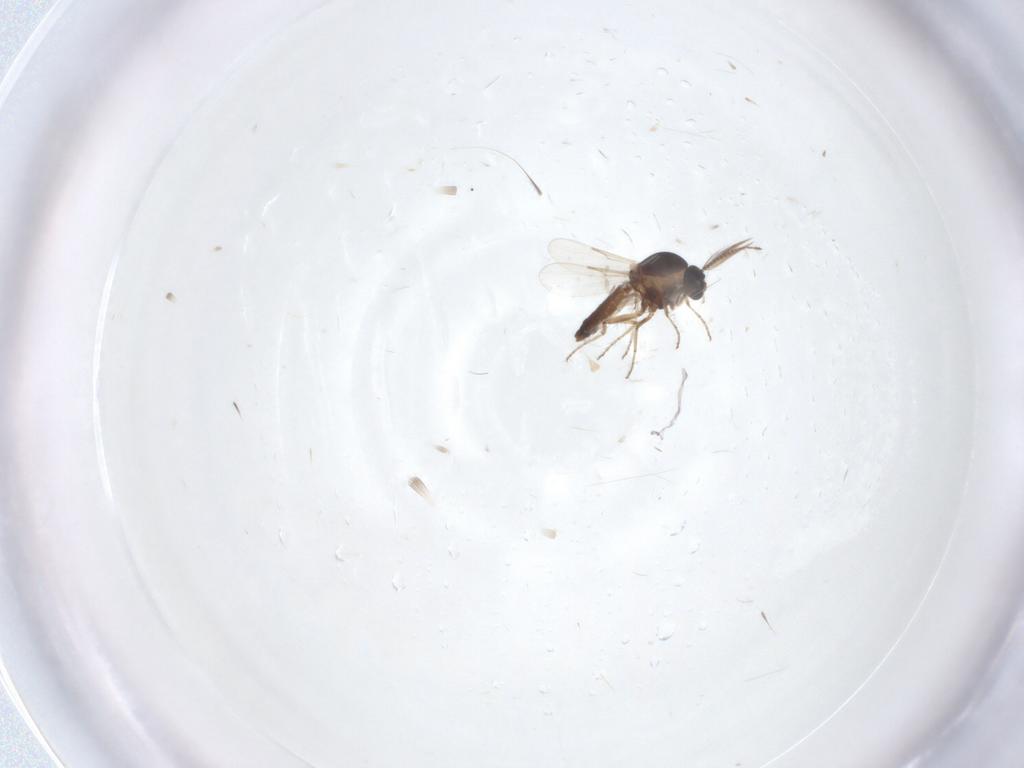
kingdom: Animalia
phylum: Arthropoda
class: Insecta
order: Diptera
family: Ceratopogonidae
